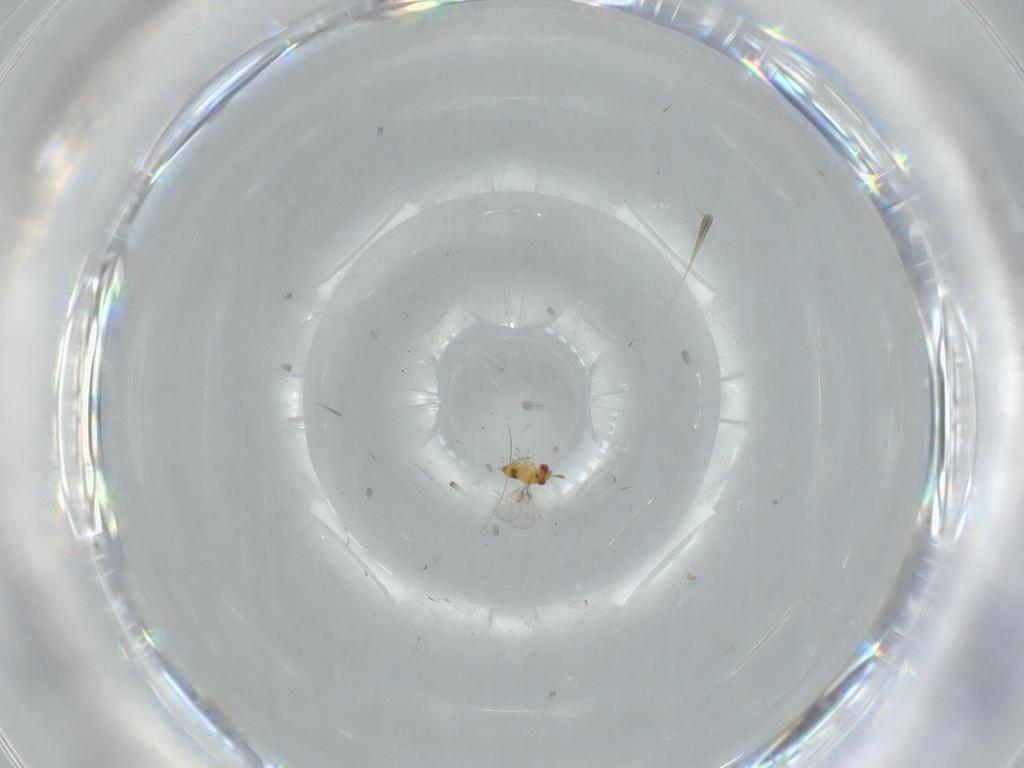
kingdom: Animalia
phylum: Arthropoda
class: Insecta
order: Hymenoptera
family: Trichogrammatidae
